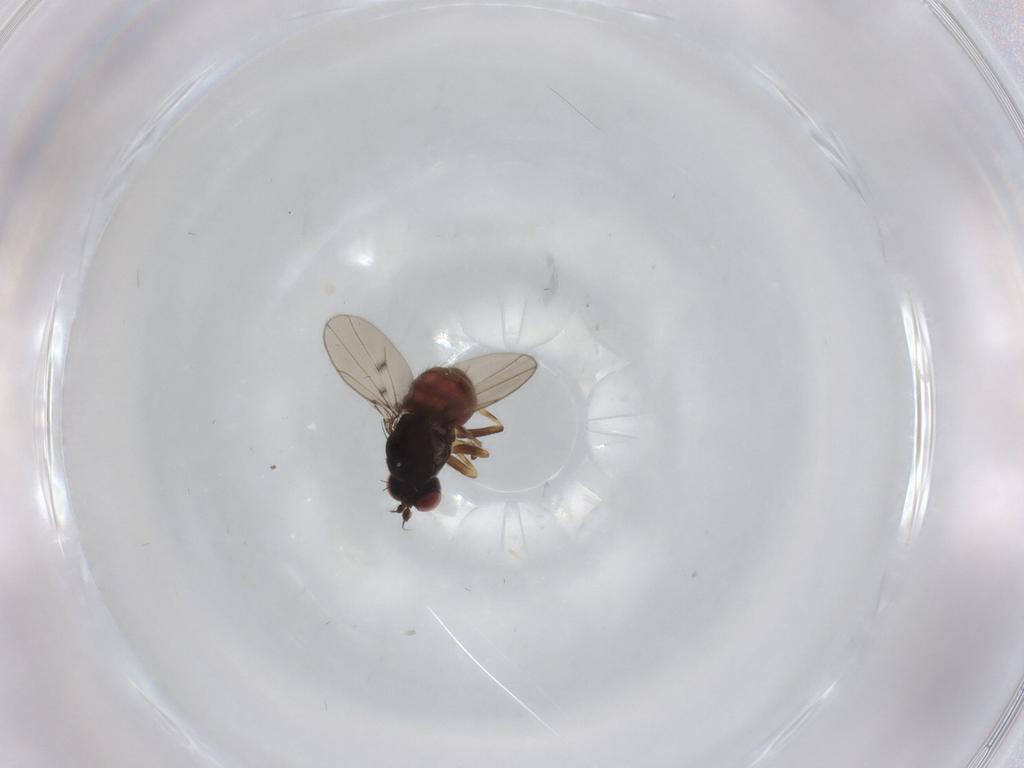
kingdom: Animalia
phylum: Arthropoda
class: Insecta
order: Diptera
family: Ephydridae
